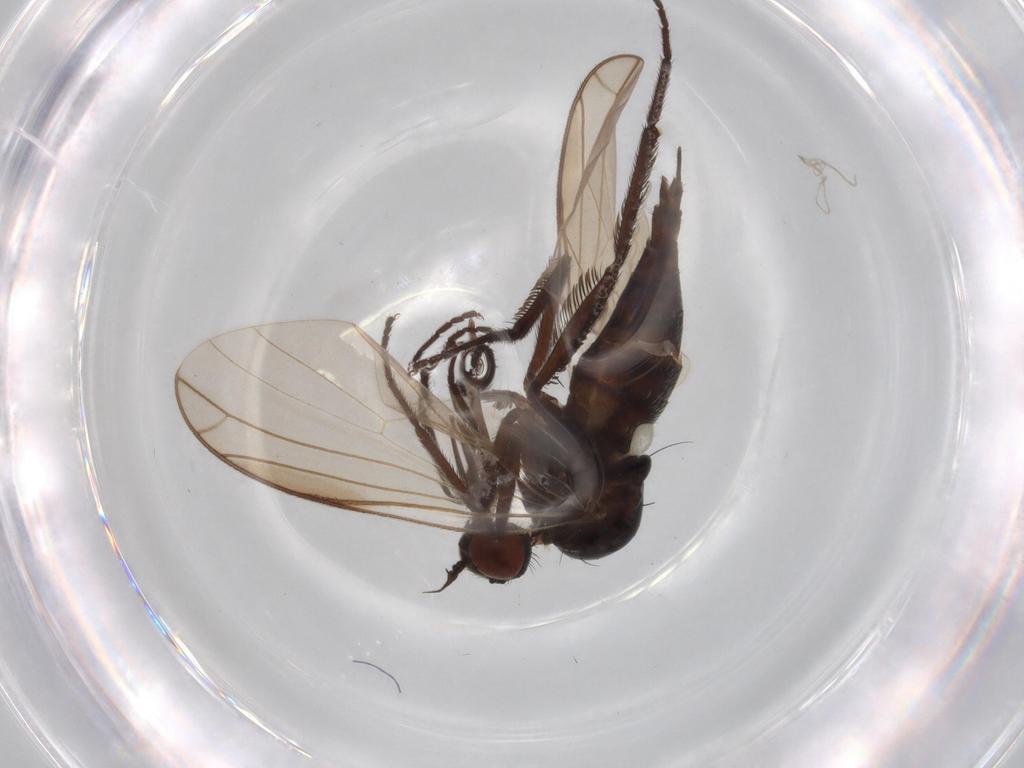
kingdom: Animalia
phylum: Arthropoda
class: Insecta
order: Diptera
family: Empididae
